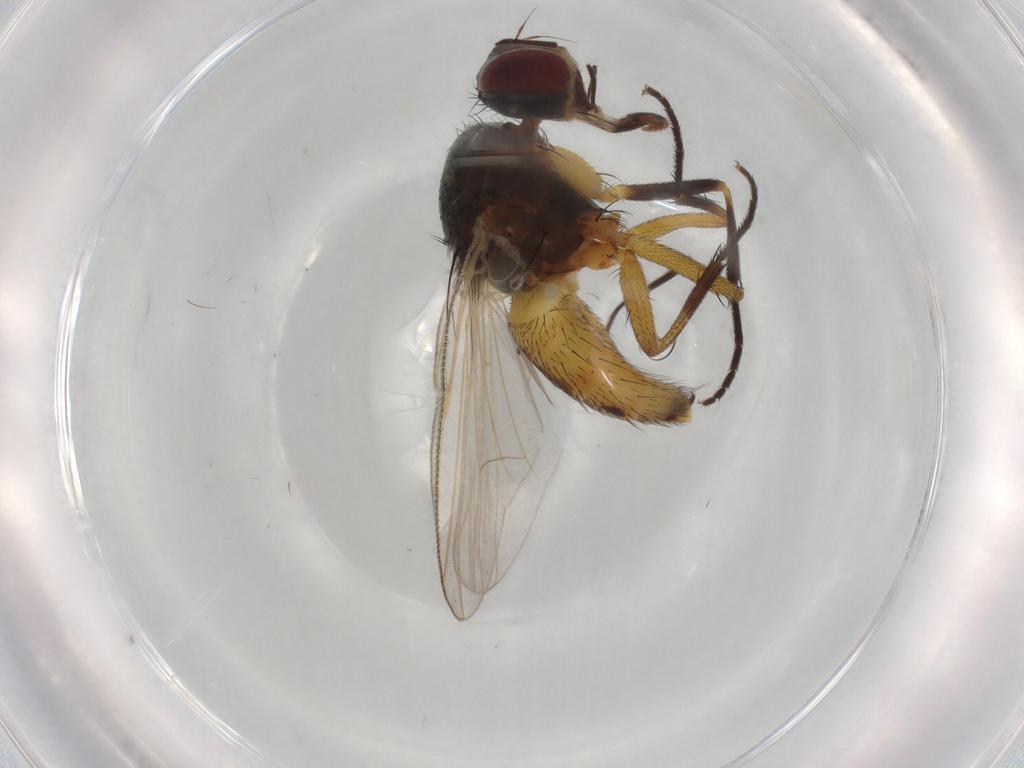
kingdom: Animalia
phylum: Arthropoda
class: Insecta
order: Diptera
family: Muscidae
